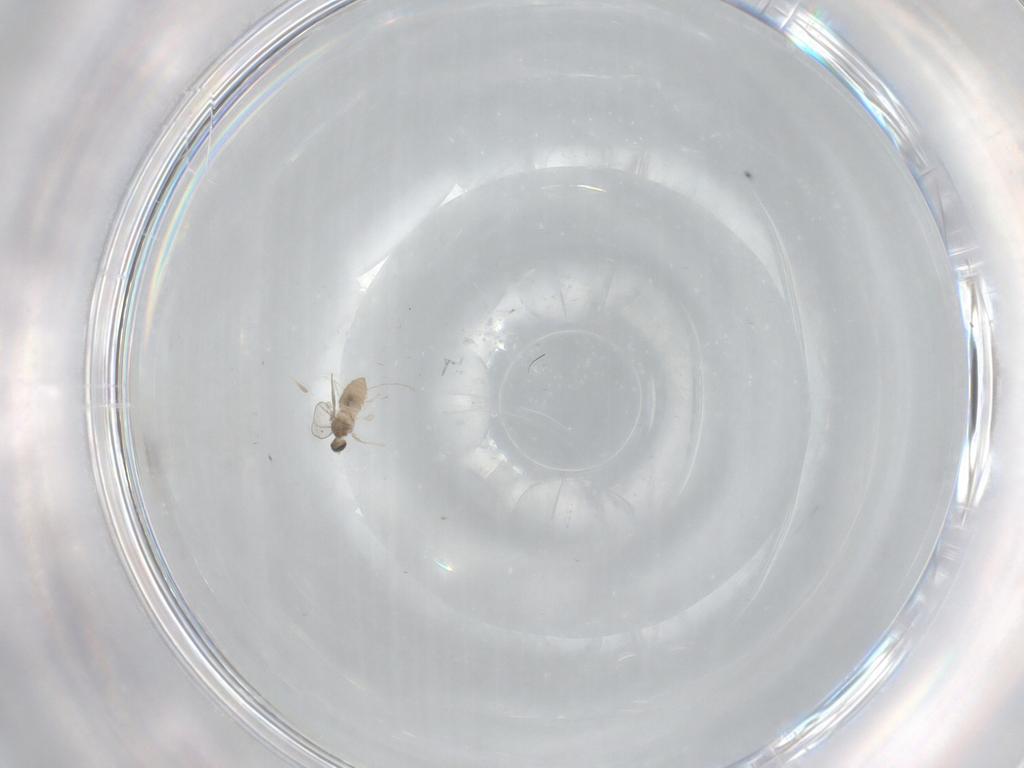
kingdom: Animalia
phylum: Arthropoda
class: Insecta
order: Diptera
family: Cecidomyiidae
